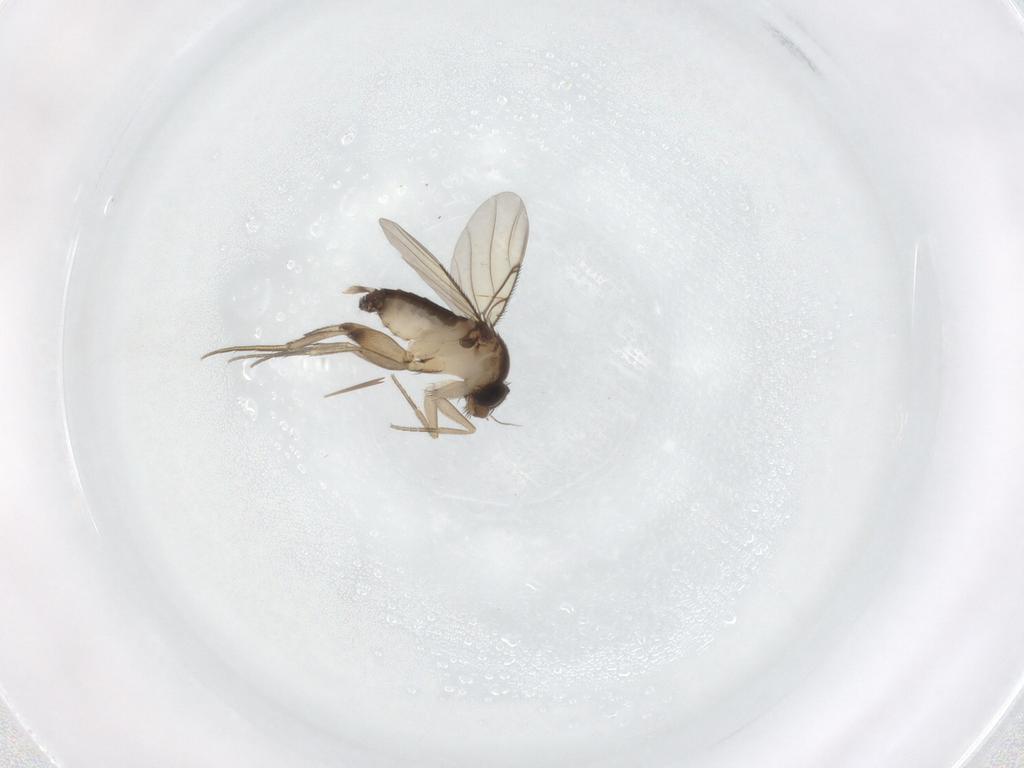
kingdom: Animalia
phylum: Arthropoda
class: Insecta
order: Diptera
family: Phoridae
